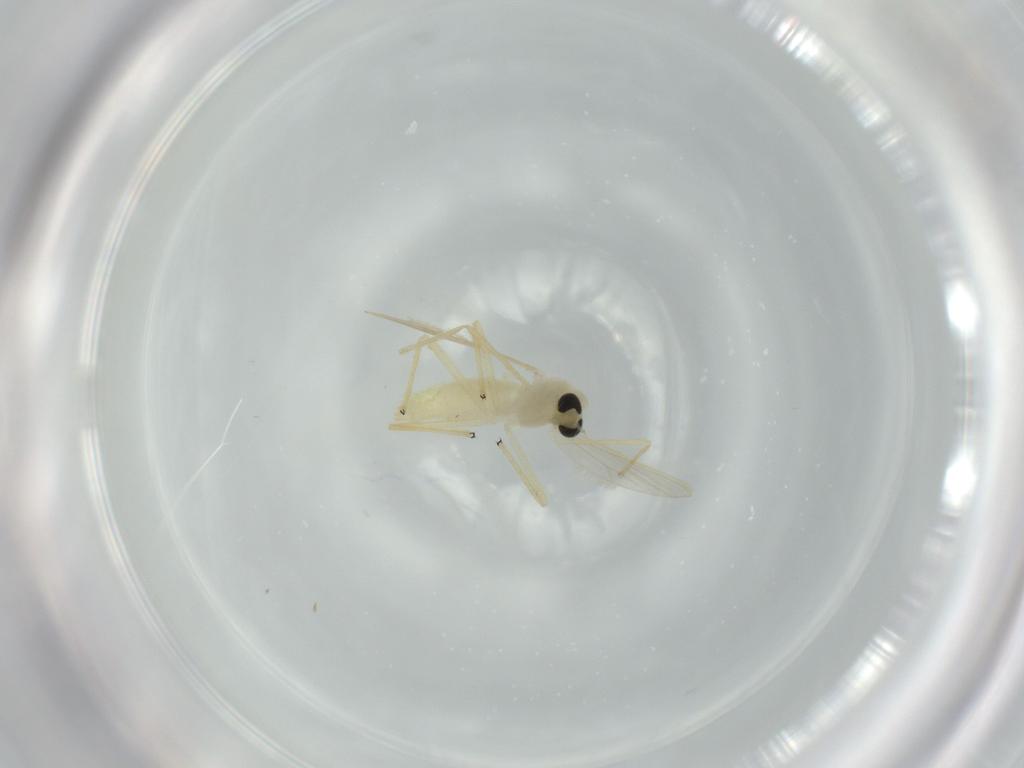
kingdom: Animalia
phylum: Arthropoda
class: Insecta
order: Diptera
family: Chironomidae
